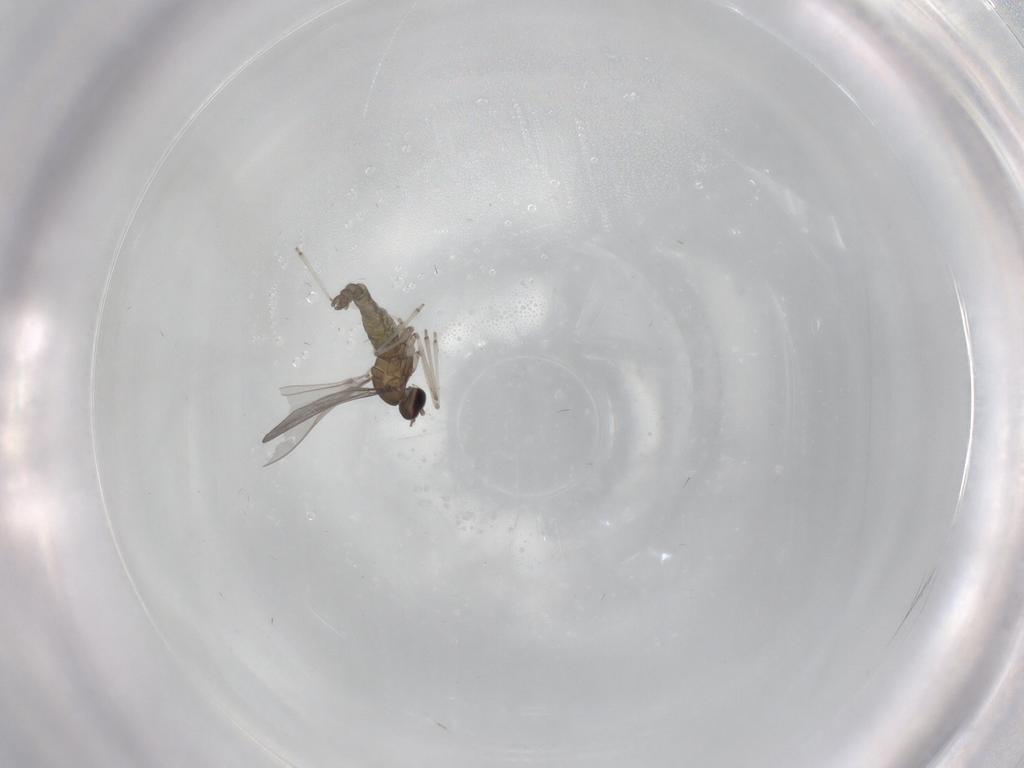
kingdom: Animalia
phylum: Arthropoda
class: Insecta
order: Diptera
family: Cecidomyiidae
